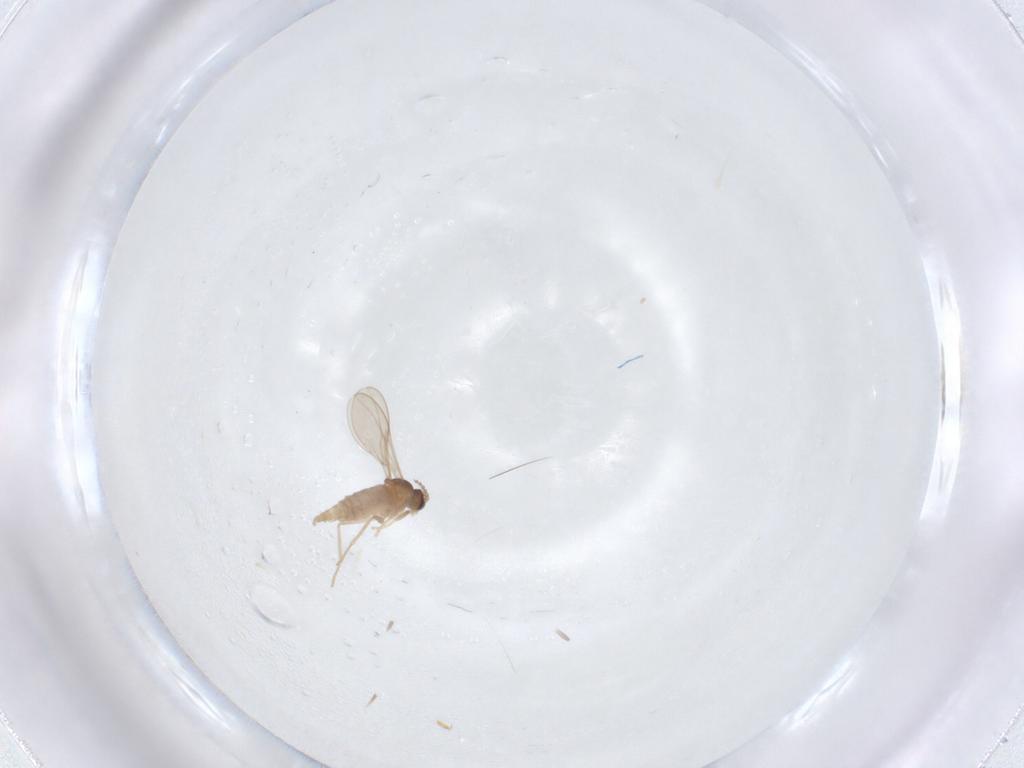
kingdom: Animalia
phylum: Arthropoda
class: Insecta
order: Diptera
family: Cecidomyiidae
